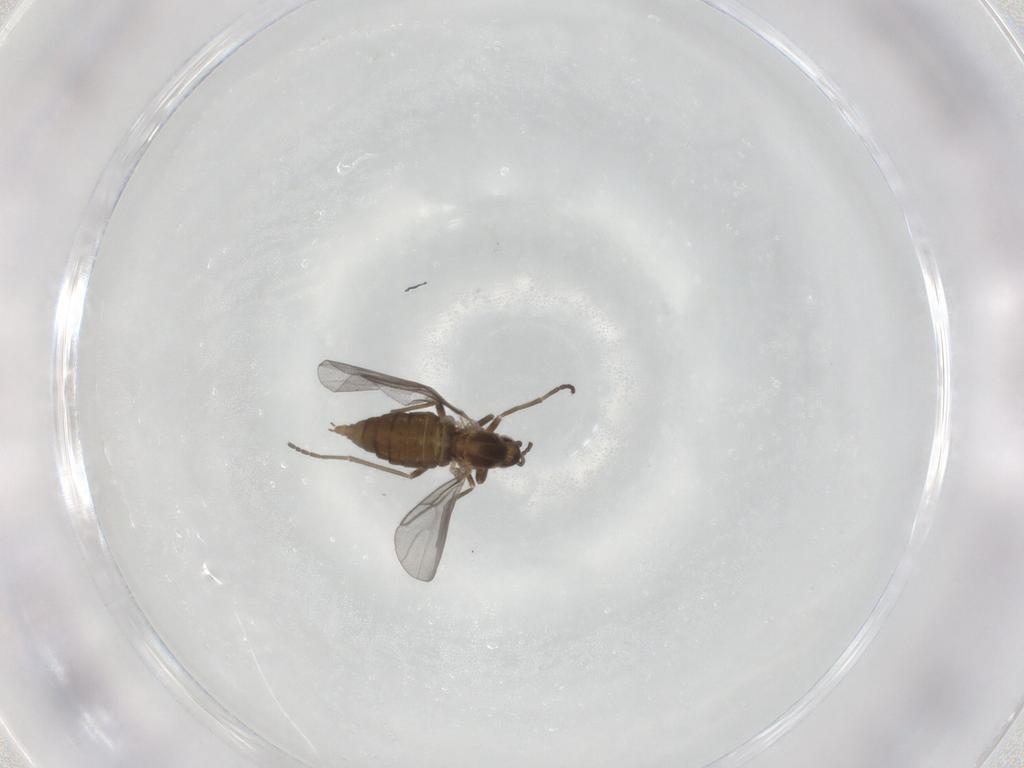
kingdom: Animalia
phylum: Arthropoda
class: Insecta
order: Diptera
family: Cecidomyiidae
